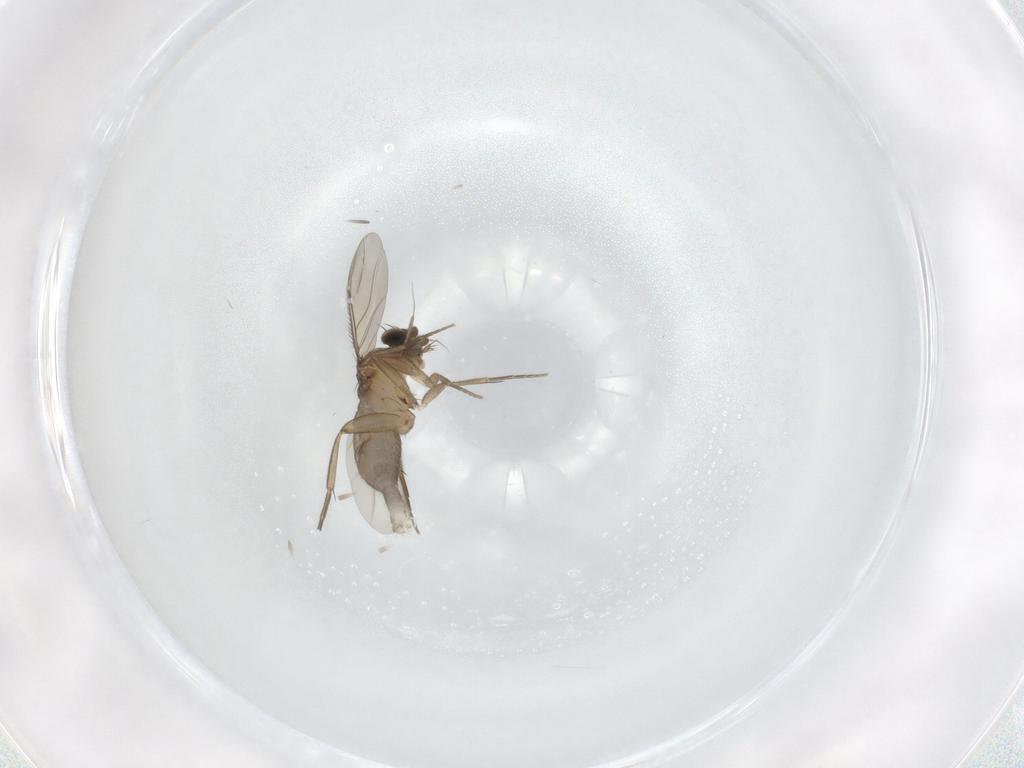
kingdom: Animalia
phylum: Arthropoda
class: Insecta
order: Diptera
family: Phoridae
